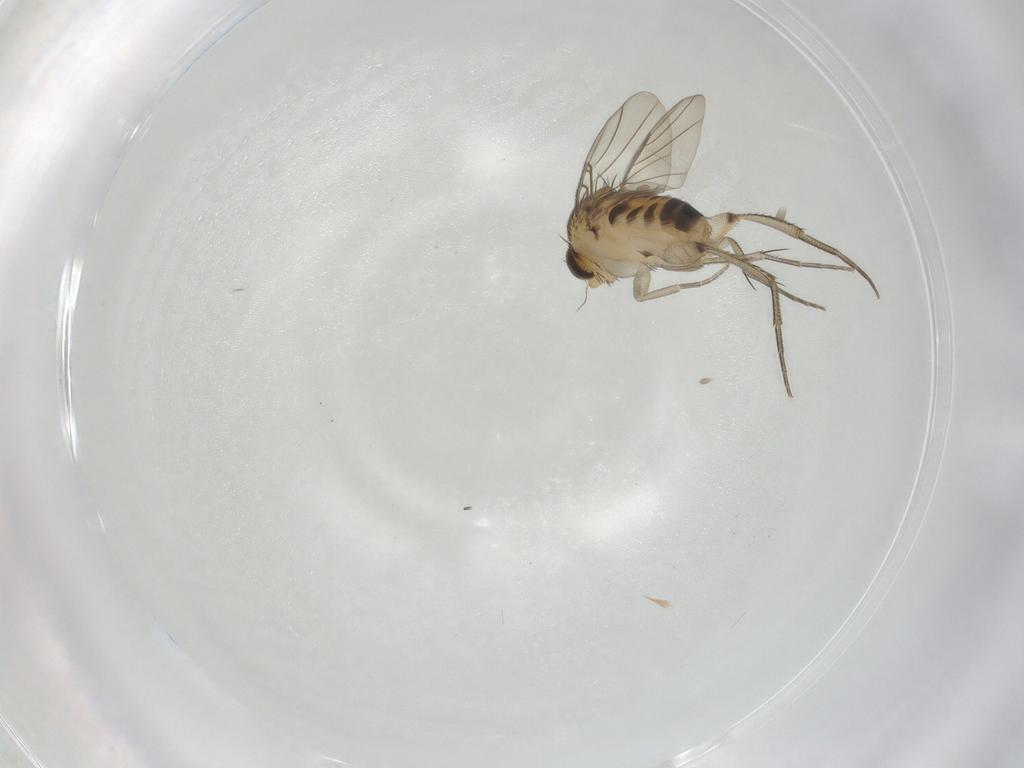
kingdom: Animalia
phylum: Arthropoda
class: Insecta
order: Diptera
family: Phoridae
